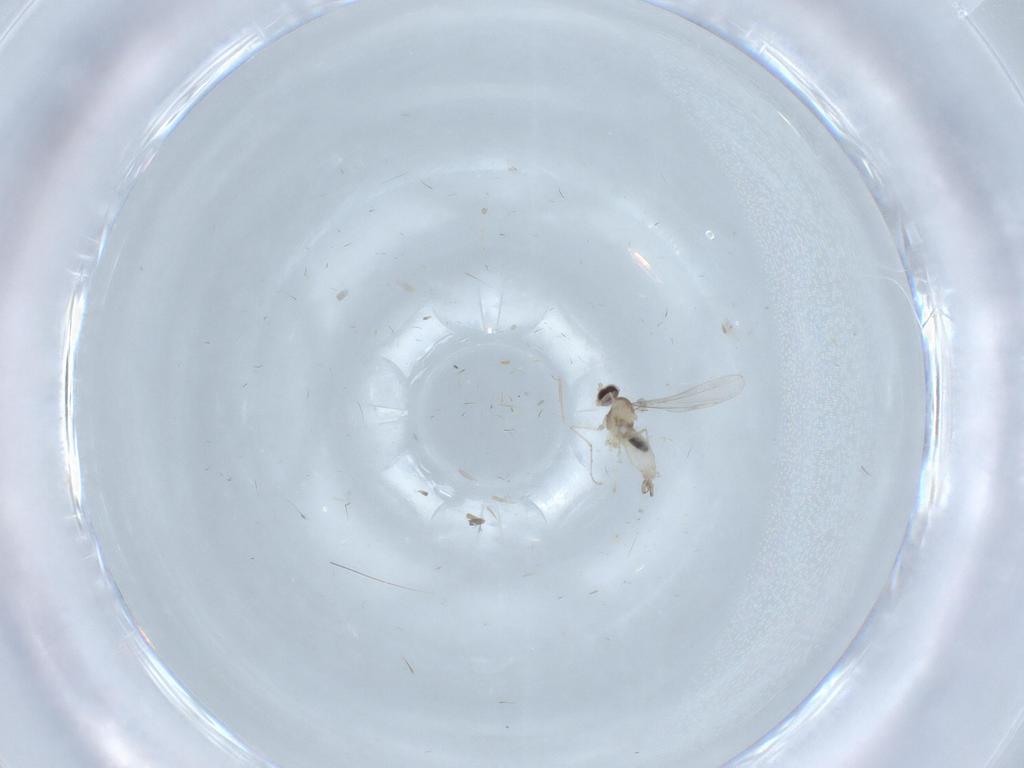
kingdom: Animalia
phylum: Arthropoda
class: Insecta
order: Diptera
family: Cecidomyiidae
